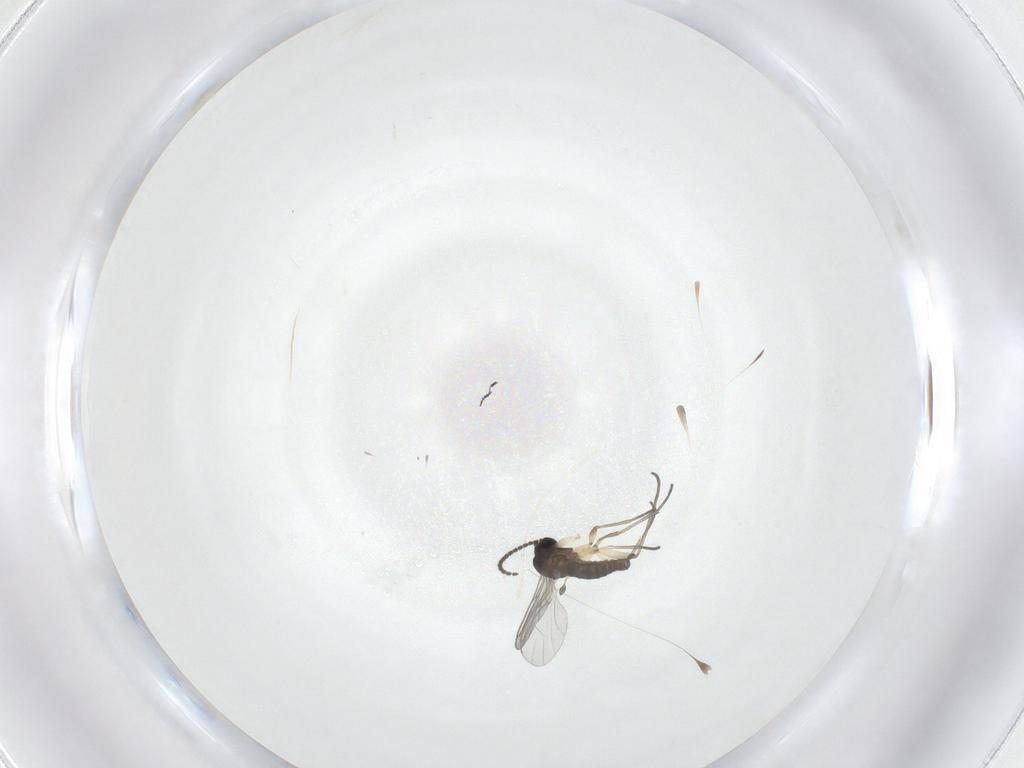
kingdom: Animalia
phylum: Arthropoda
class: Insecta
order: Diptera
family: Sciaridae
